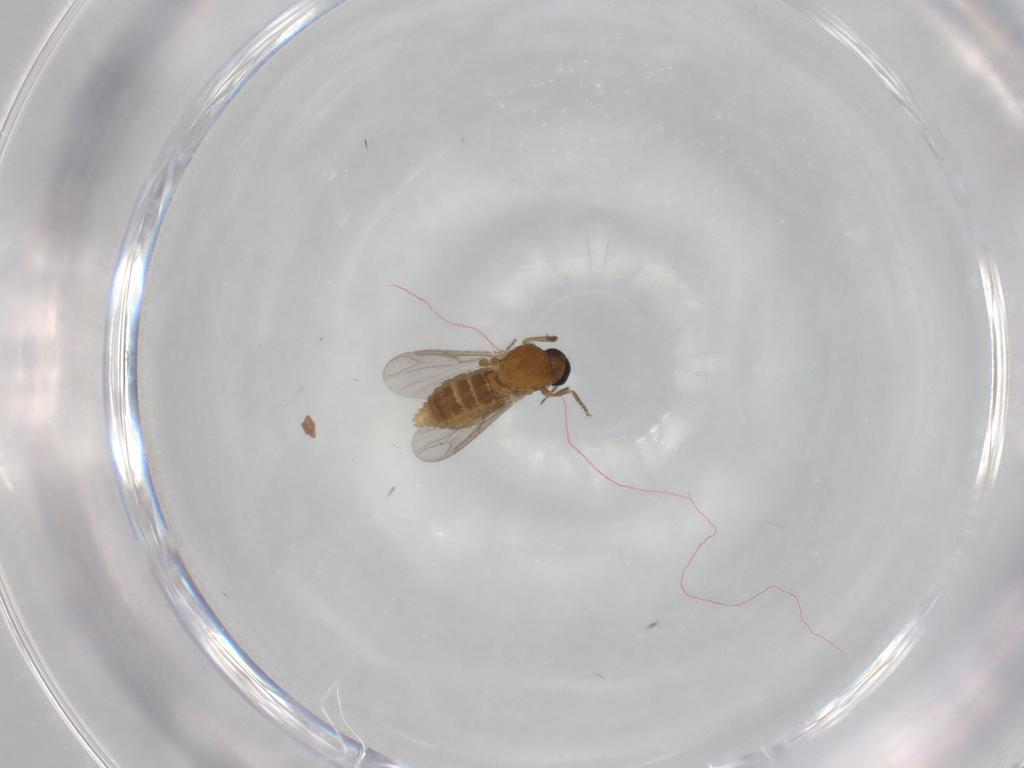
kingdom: Animalia
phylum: Arthropoda
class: Insecta
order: Diptera
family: Ceratopogonidae
